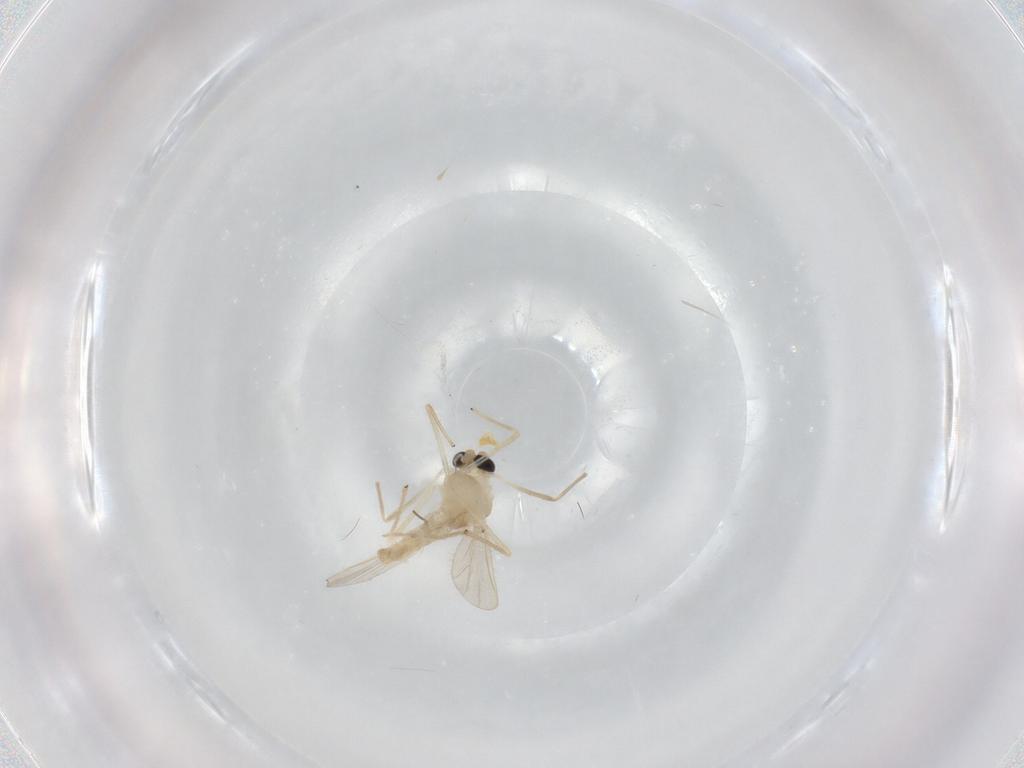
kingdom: Animalia
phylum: Arthropoda
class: Insecta
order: Diptera
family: Chironomidae
